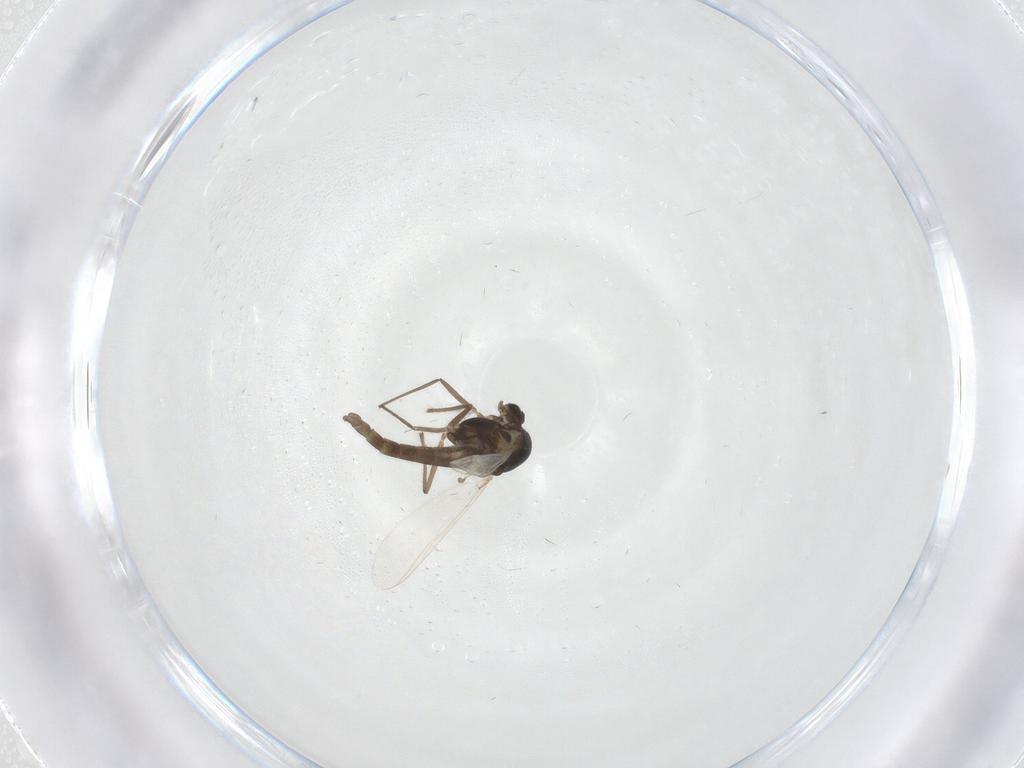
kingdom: Animalia
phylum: Arthropoda
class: Insecta
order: Diptera
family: Chironomidae
